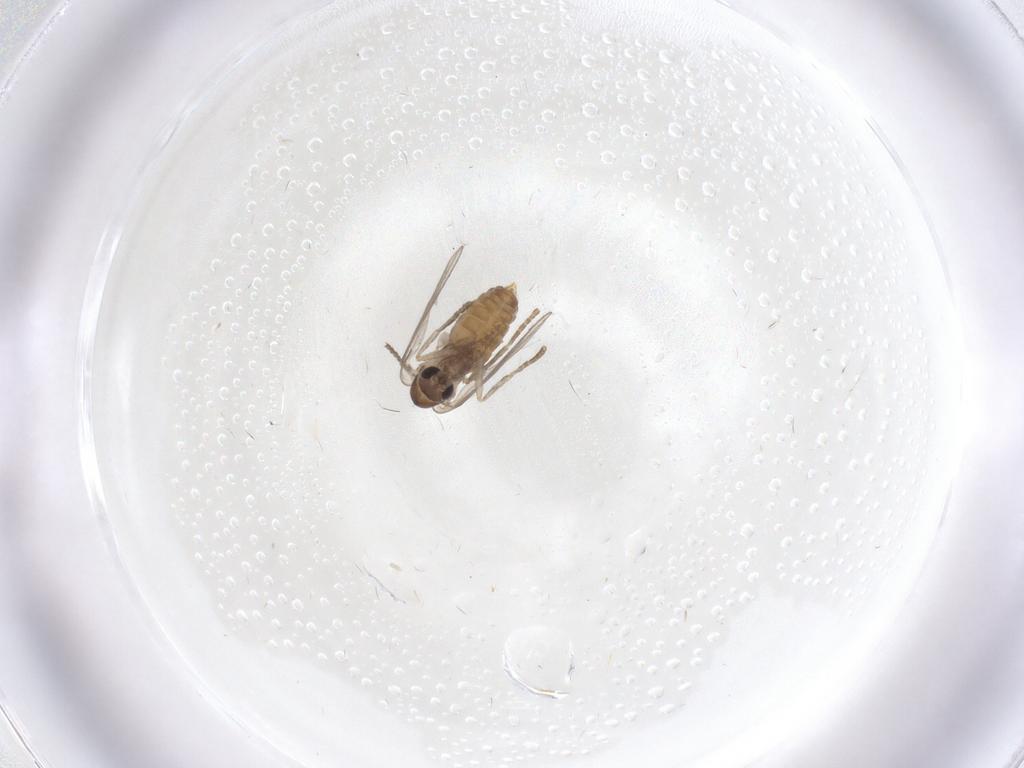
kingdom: Animalia
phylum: Arthropoda
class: Insecta
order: Diptera
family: Psychodidae
